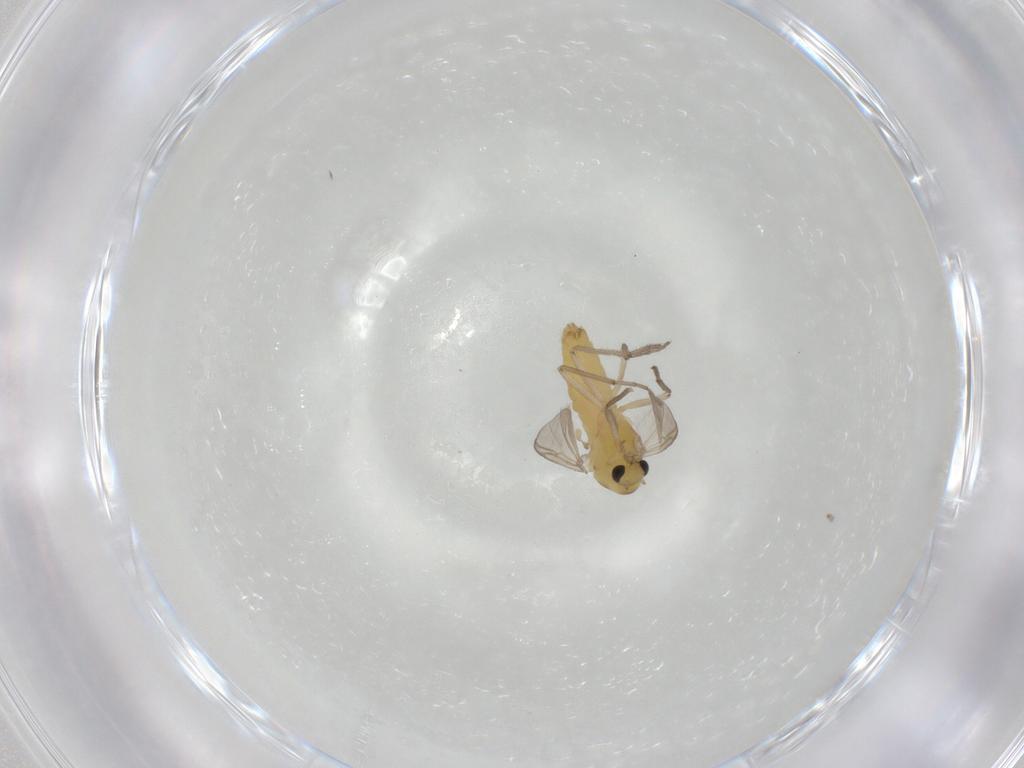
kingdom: Animalia
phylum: Arthropoda
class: Insecta
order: Diptera
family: Chironomidae
